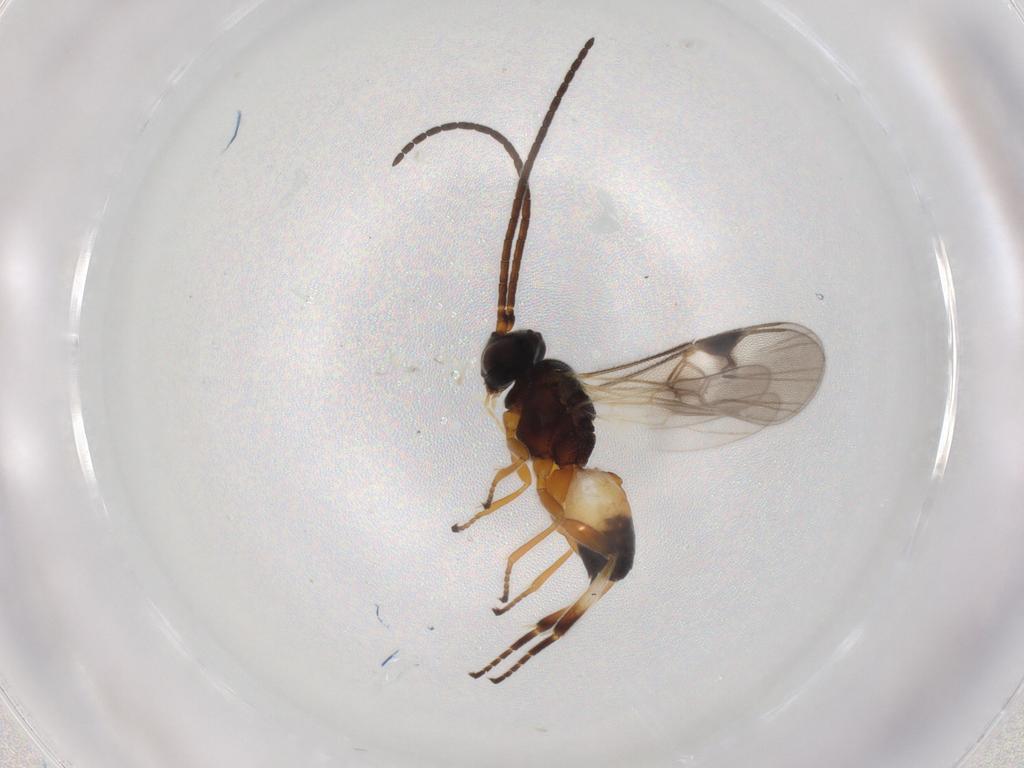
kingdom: Animalia
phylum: Arthropoda
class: Insecta
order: Hymenoptera
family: Braconidae
